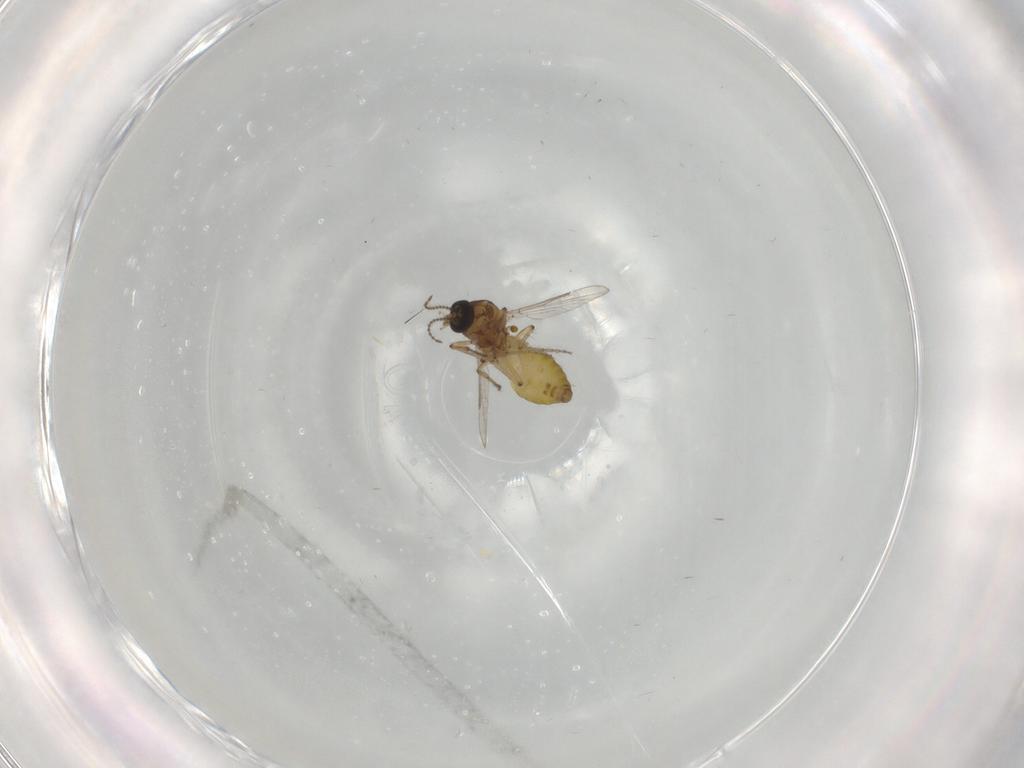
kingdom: Animalia
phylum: Arthropoda
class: Insecta
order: Diptera
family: Ceratopogonidae
